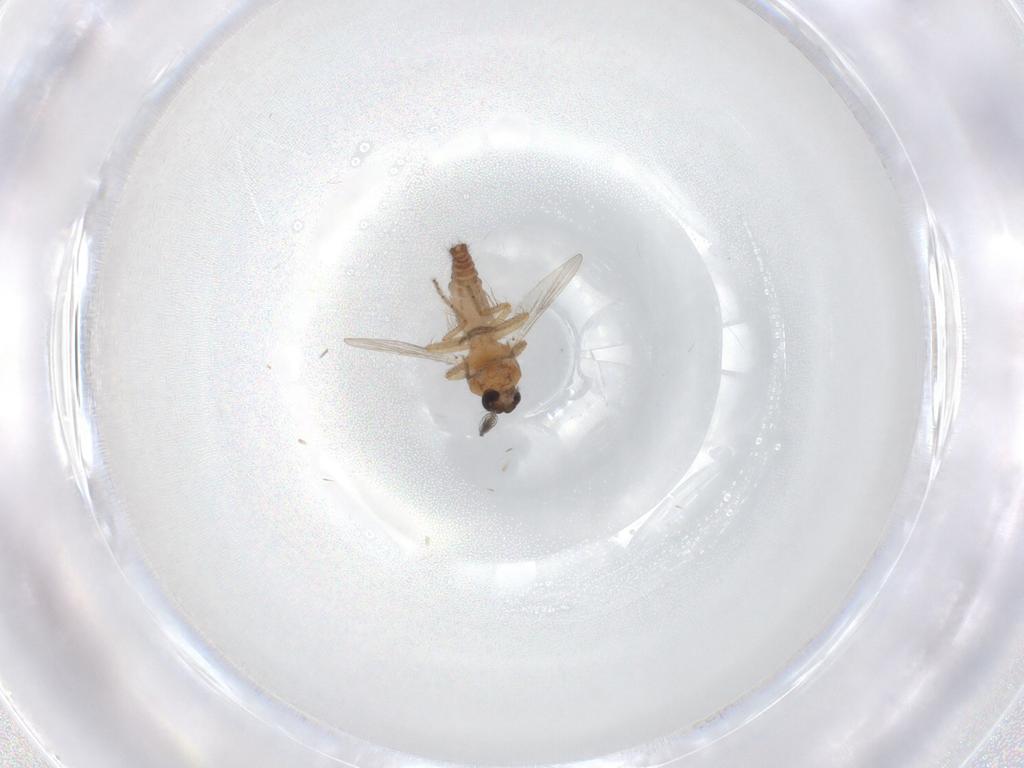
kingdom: Animalia
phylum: Arthropoda
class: Insecta
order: Diptera
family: Ceratopogonidae
